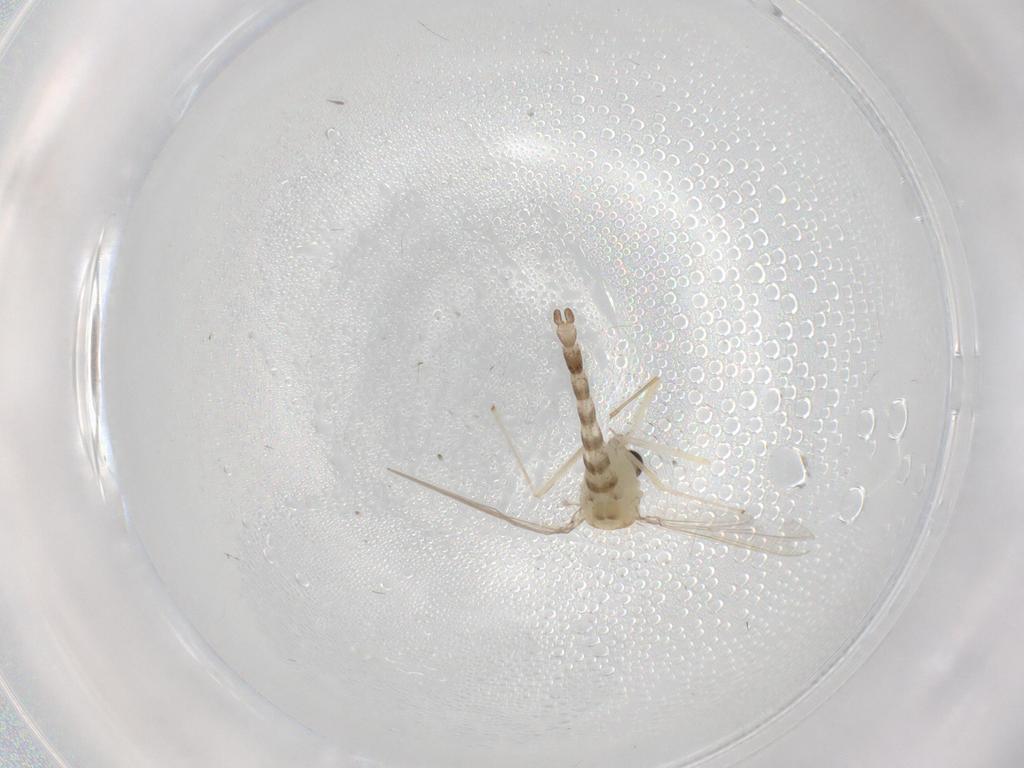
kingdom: Animalia
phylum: Arthropoda
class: Insecta
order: Diptera
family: Chironomidae
